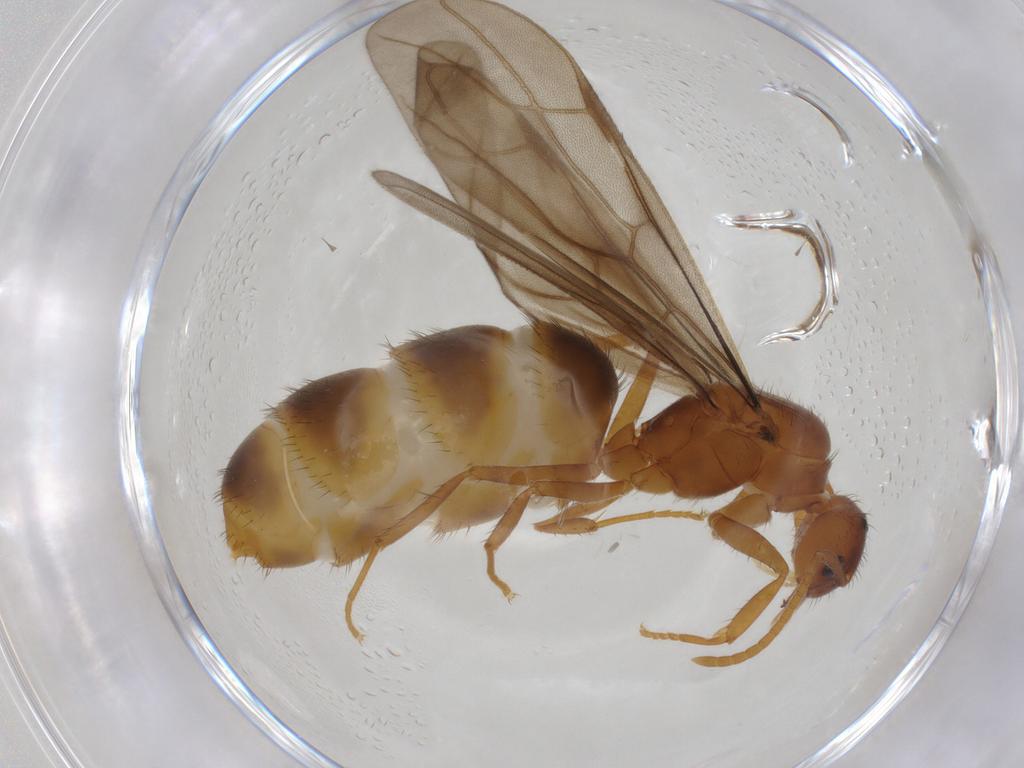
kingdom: Animalia
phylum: Arthropoda
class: Insecta
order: Hymenoptera
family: Formicidae
